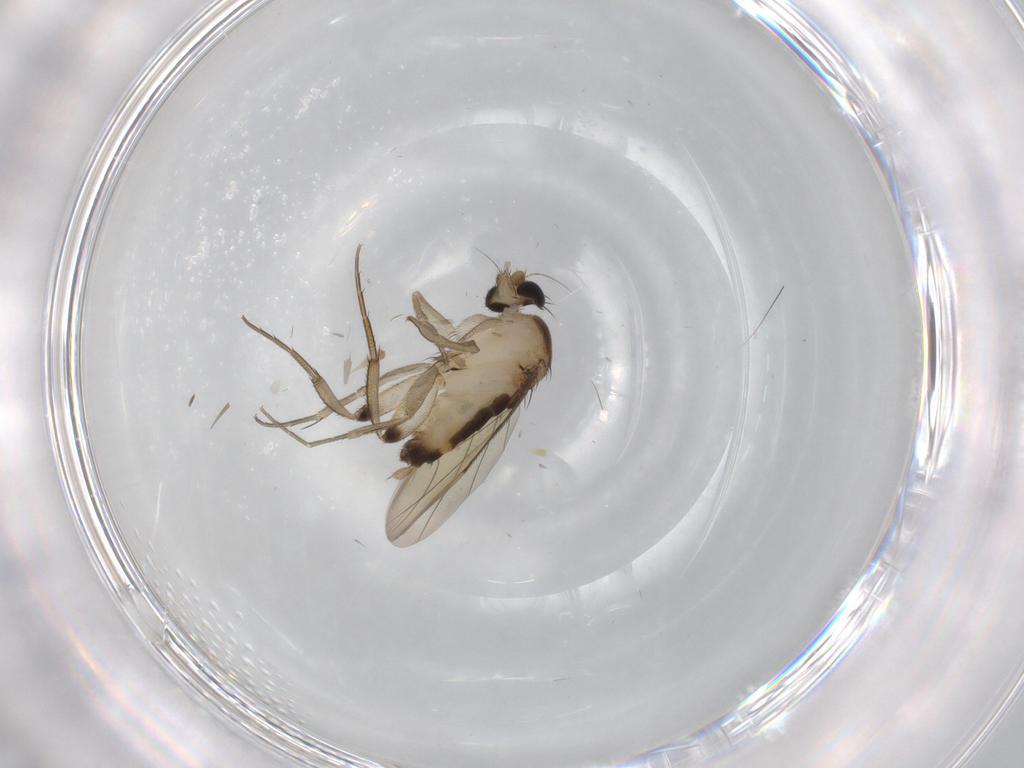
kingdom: Animalia
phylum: Arthropoda
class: Insecta
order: Diptera
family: Phoridae
